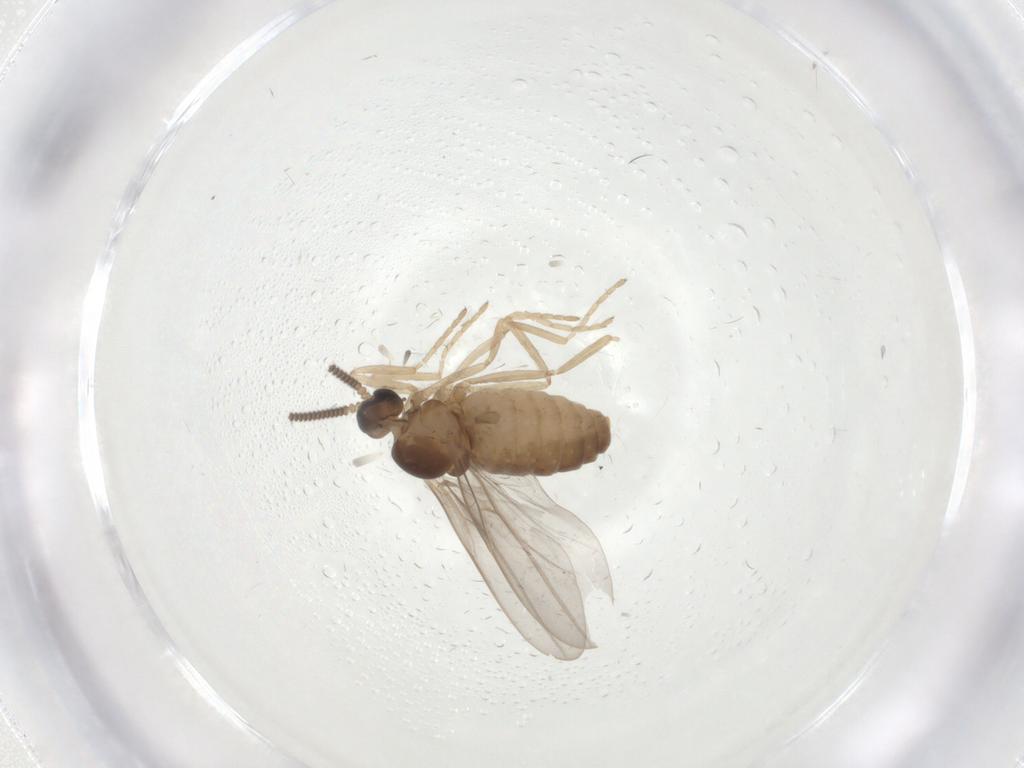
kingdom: Animalia
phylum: Arthropoda
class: Insecta
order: Diptera
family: Cecidomyiidae
